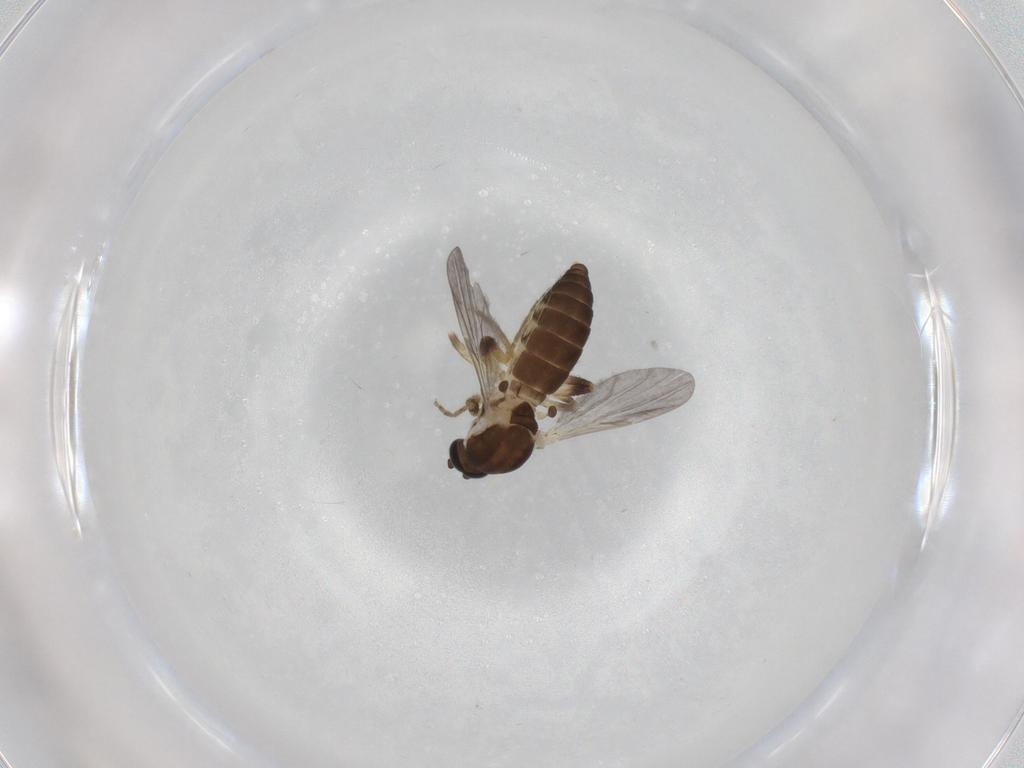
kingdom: Animalia
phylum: Arthropoda
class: Insecta
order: Diptera
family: Ceratopogonidae
